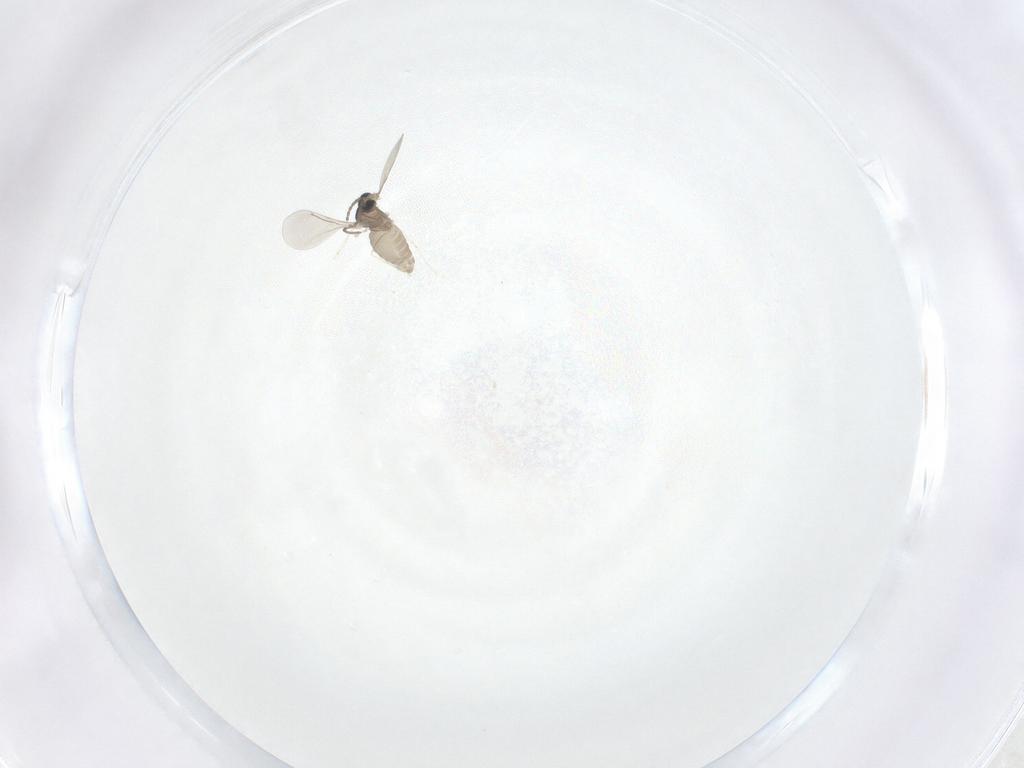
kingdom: Animalia
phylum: Arthropoda
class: Insecta
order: Diptera
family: Cecidomyiidae
